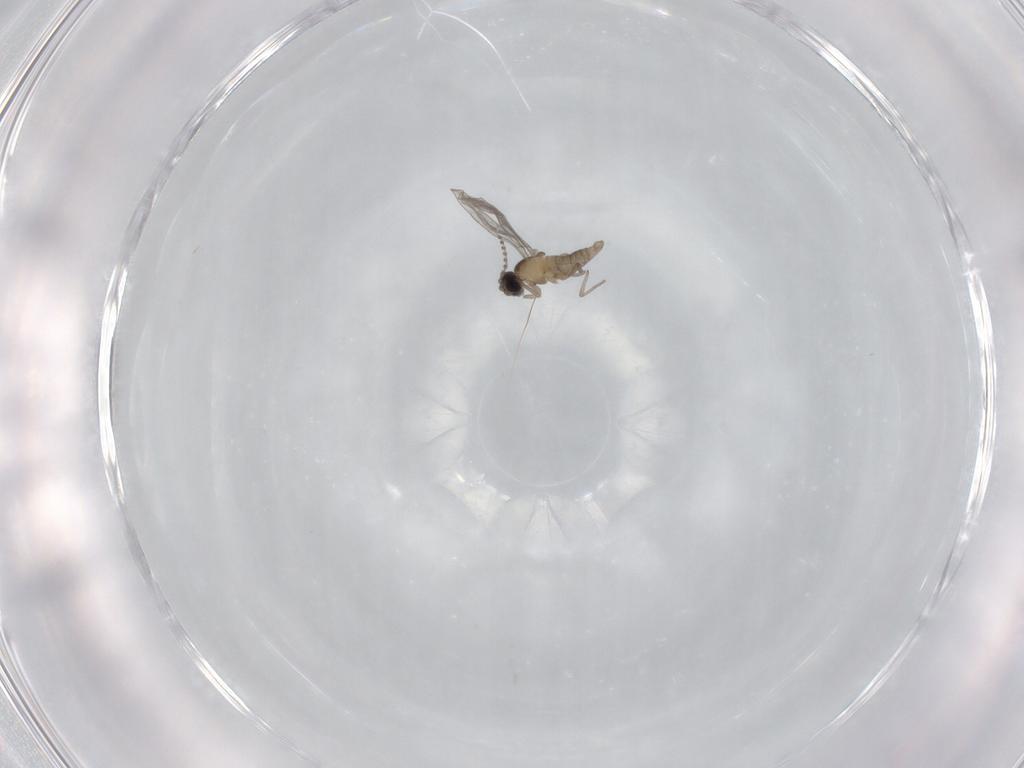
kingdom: Animalia
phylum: Arthropoda
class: Insecta
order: Diptera
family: Cecidomyiidae
